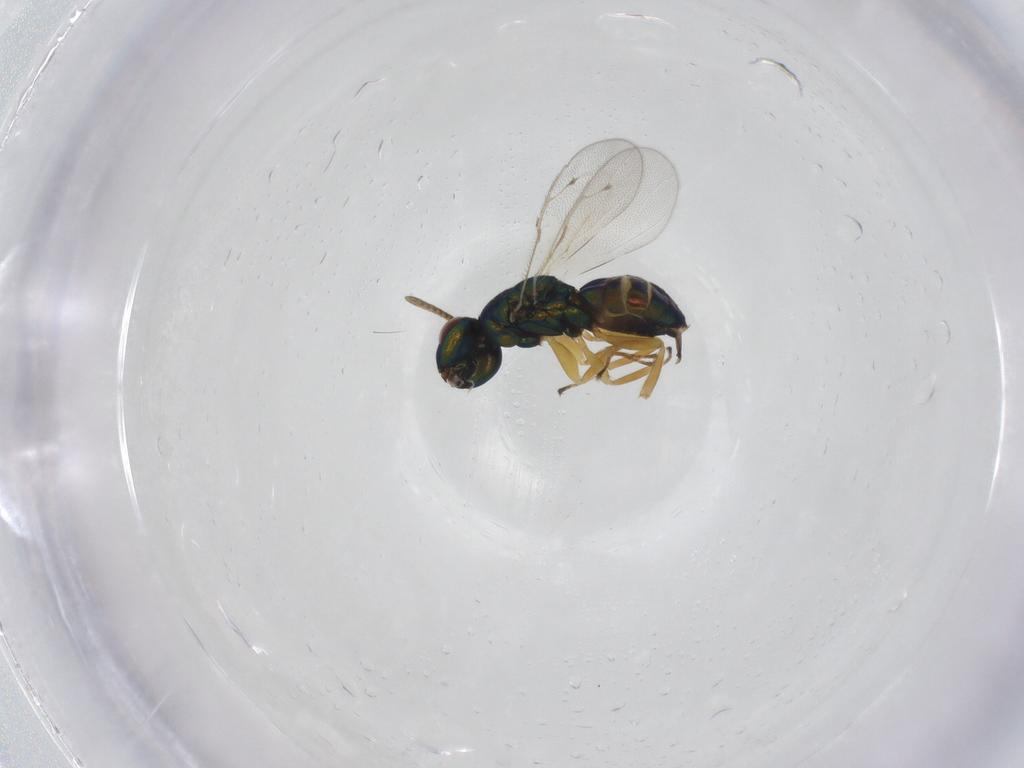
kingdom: Animalia
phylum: Arthropoda
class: Insecta
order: Hymenoptera
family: Pteromalidae
